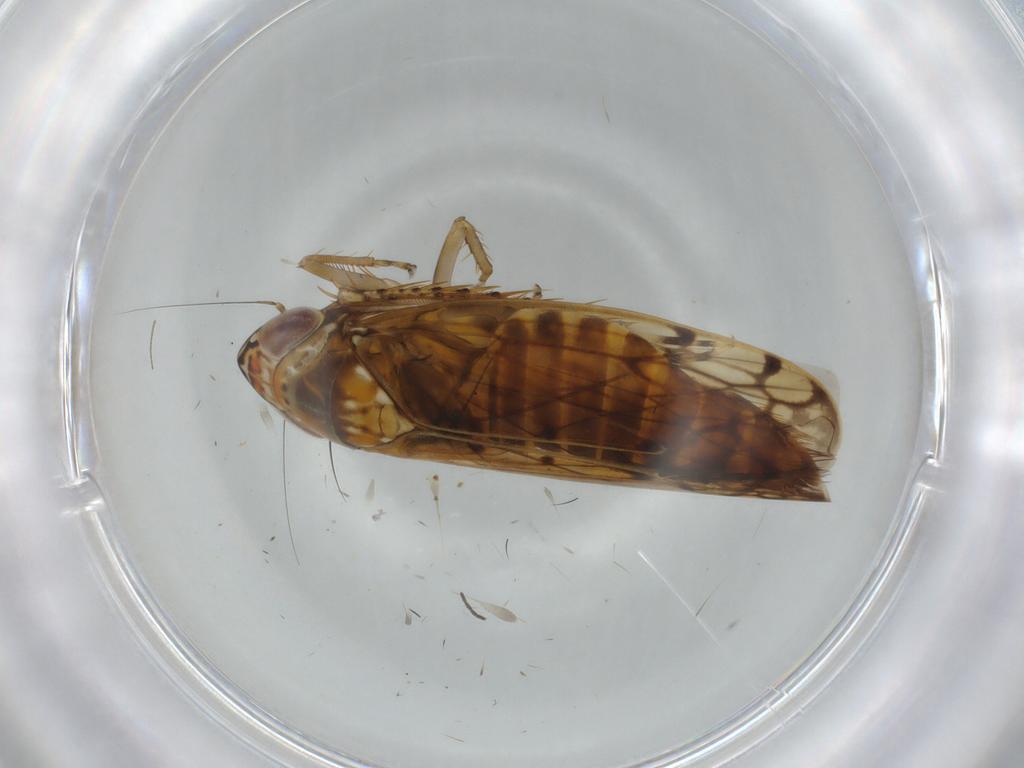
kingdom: Animalia
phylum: Arthropoda
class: Insecta
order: Hemiptera
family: Cicadellidae
